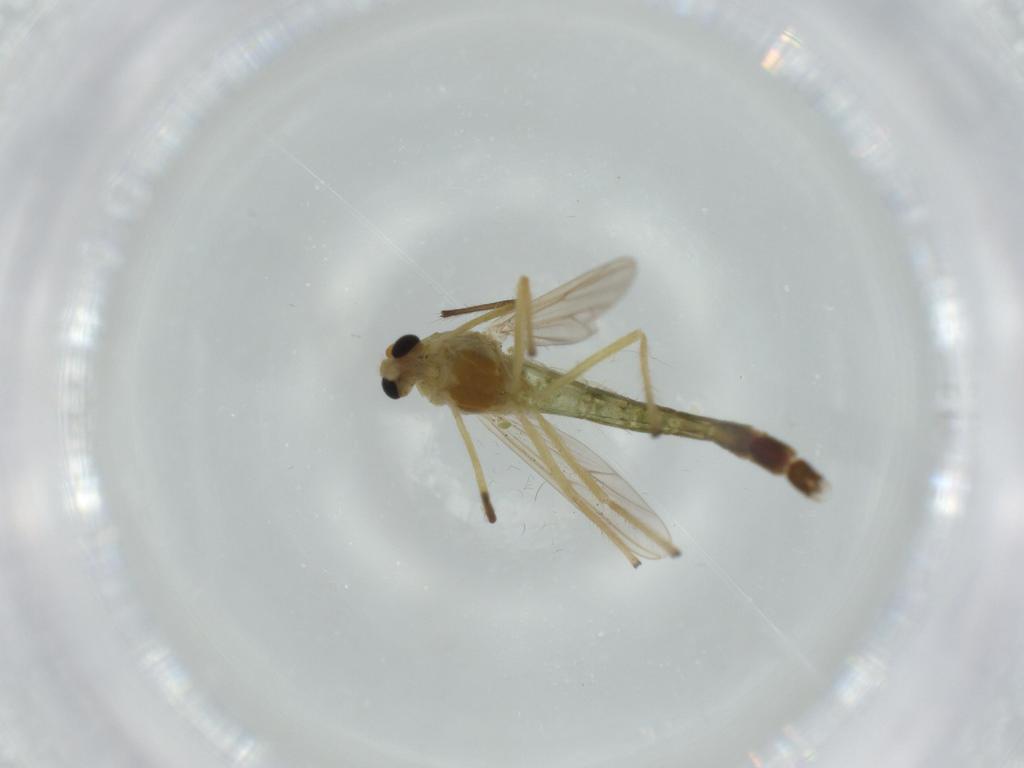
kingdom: Animalia
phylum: Arthropoda
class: Insecta
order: Diptera
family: Chironomidae
